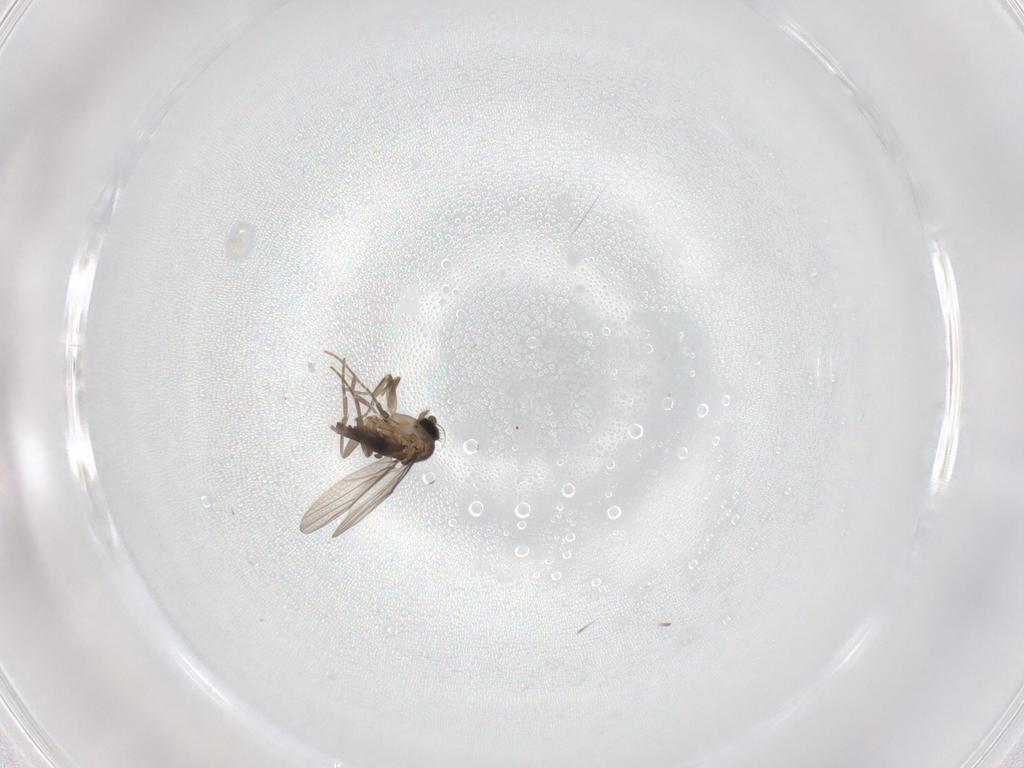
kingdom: Animalia
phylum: Arthropoda
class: Insecta
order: Diptera
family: Phoridae
